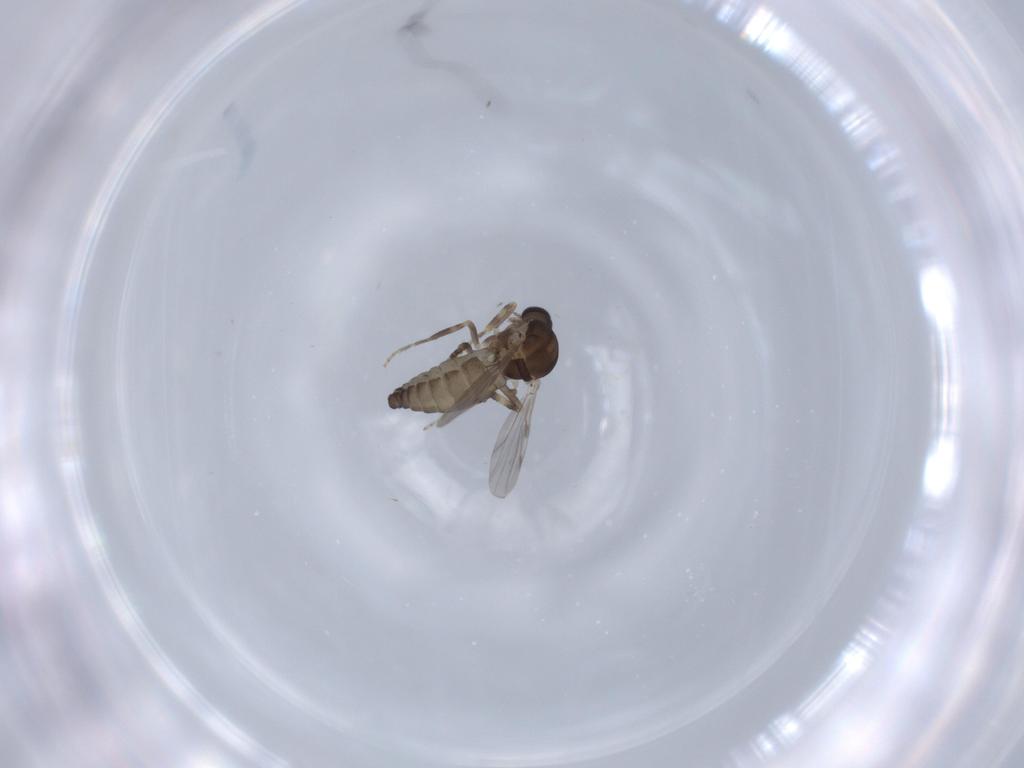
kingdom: Animalia
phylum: Arthropoda
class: Insecta
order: Diptera
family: Ceratopogonidae
